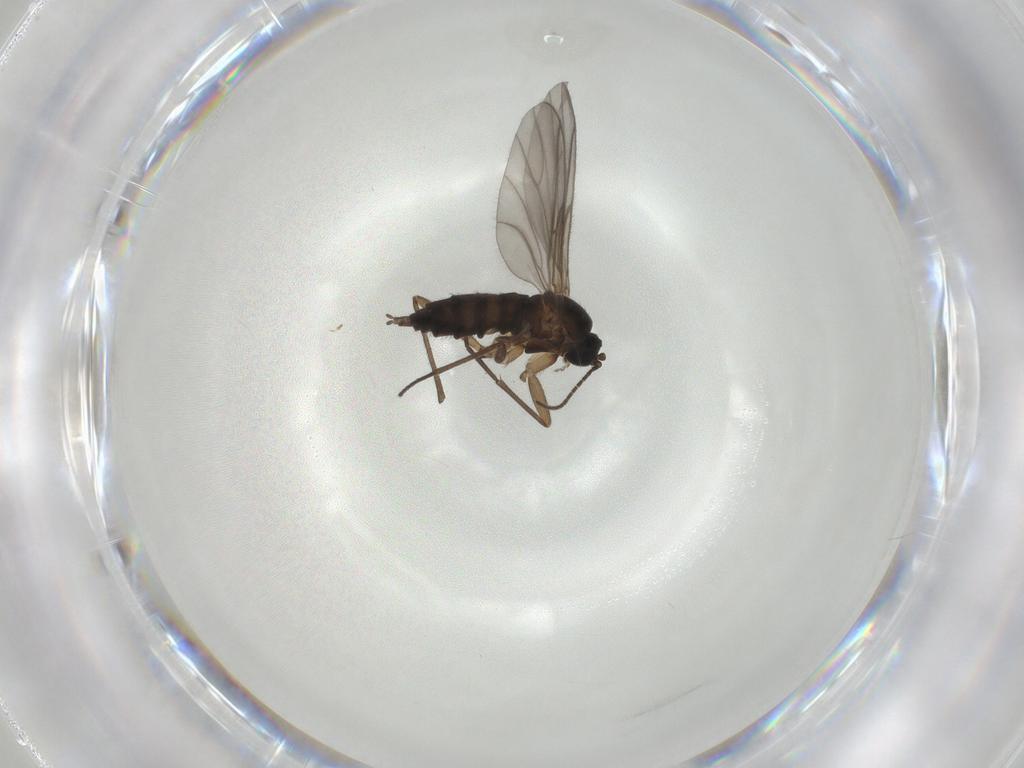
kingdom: Animalia
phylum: Arthropoda
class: Insecta
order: Diptera
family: Sciaridae
